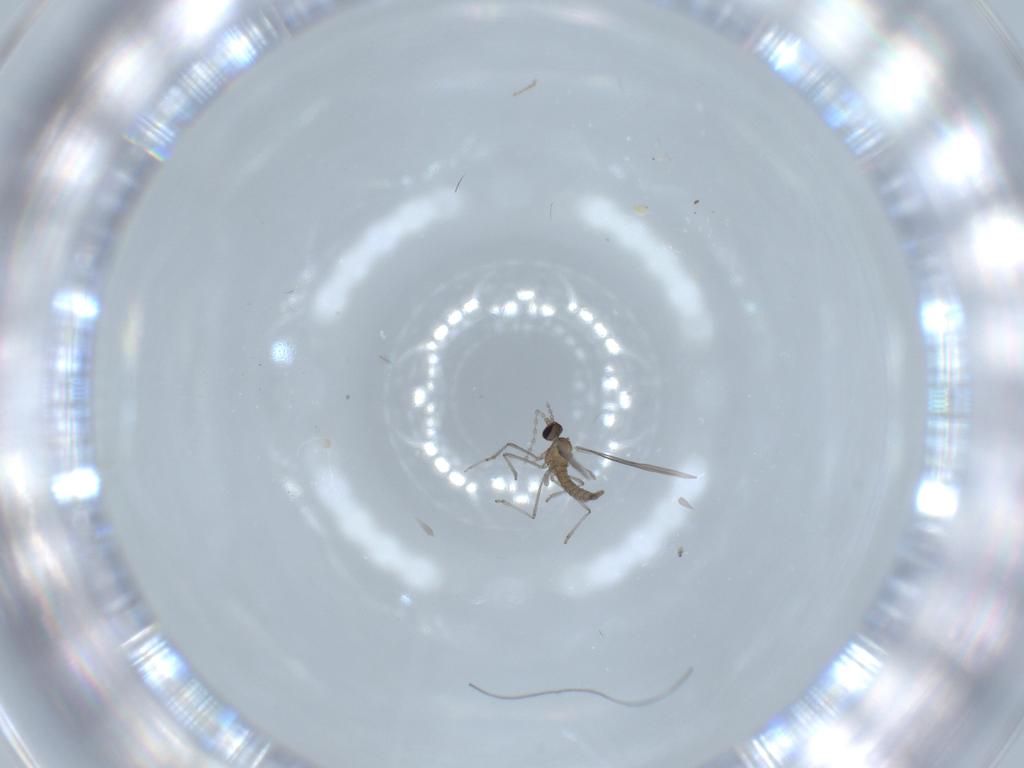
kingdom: Animalia
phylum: Arthropoda
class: Insecta
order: Diptera
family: Cecidomyiidae
